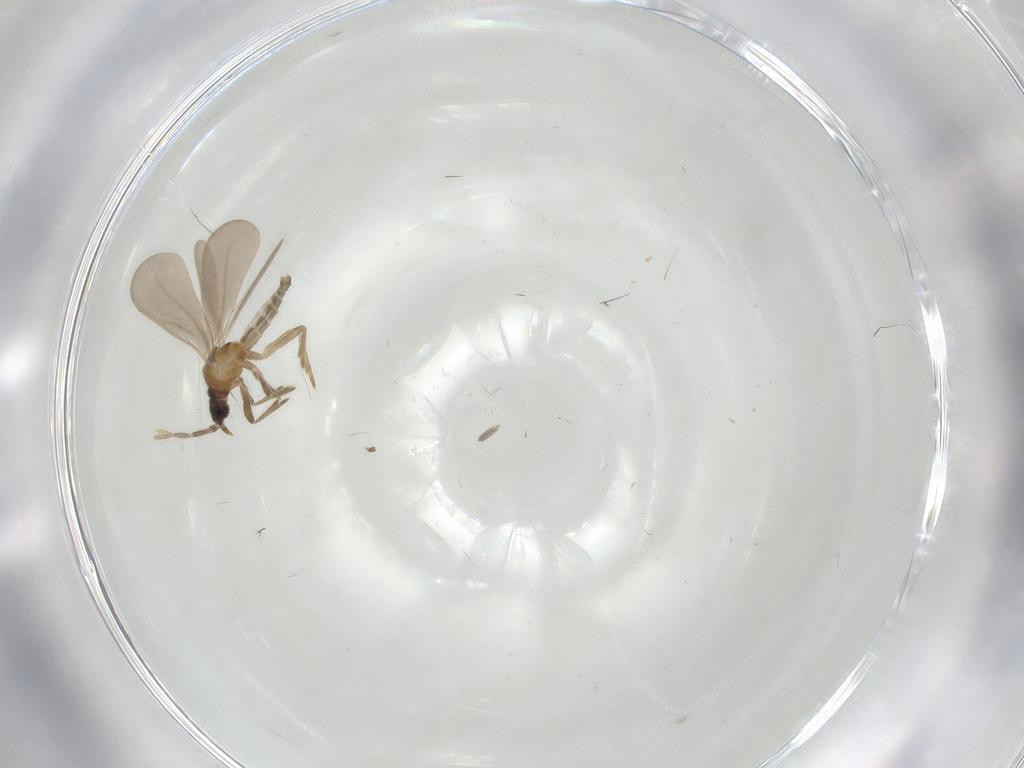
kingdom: Animalia
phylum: Arthropoda
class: Insecta
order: Diptera
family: Sciaridae
